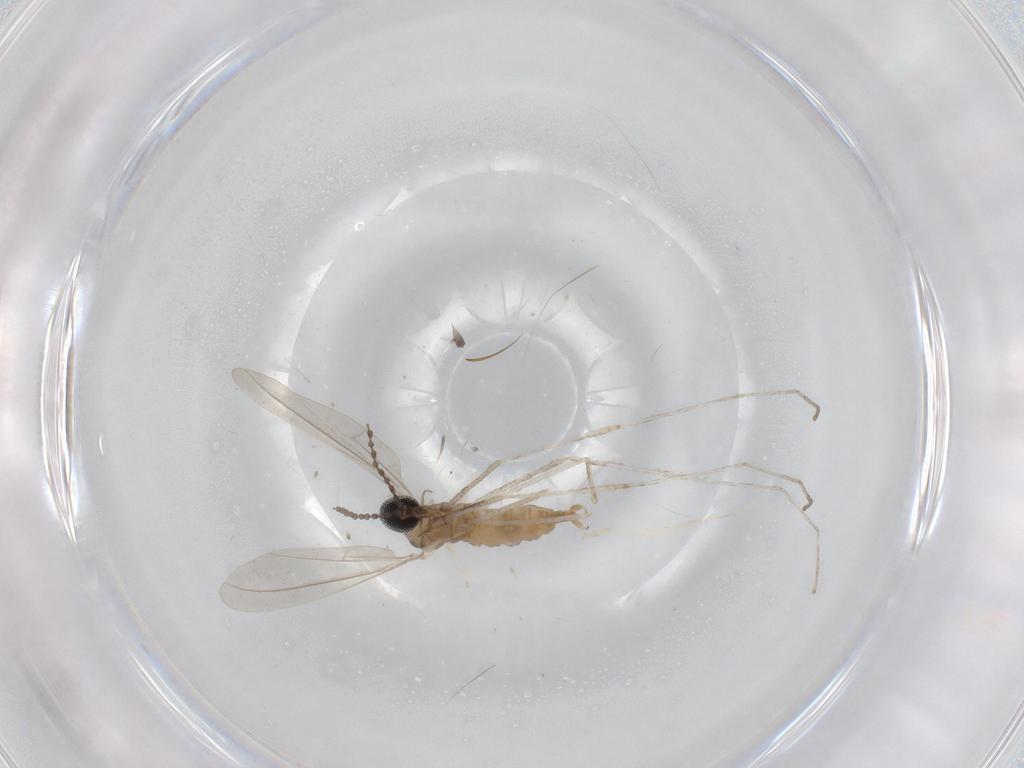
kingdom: Animalia
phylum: Arthropoda
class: Insecta
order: Diptera
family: Cecidomyiidae
